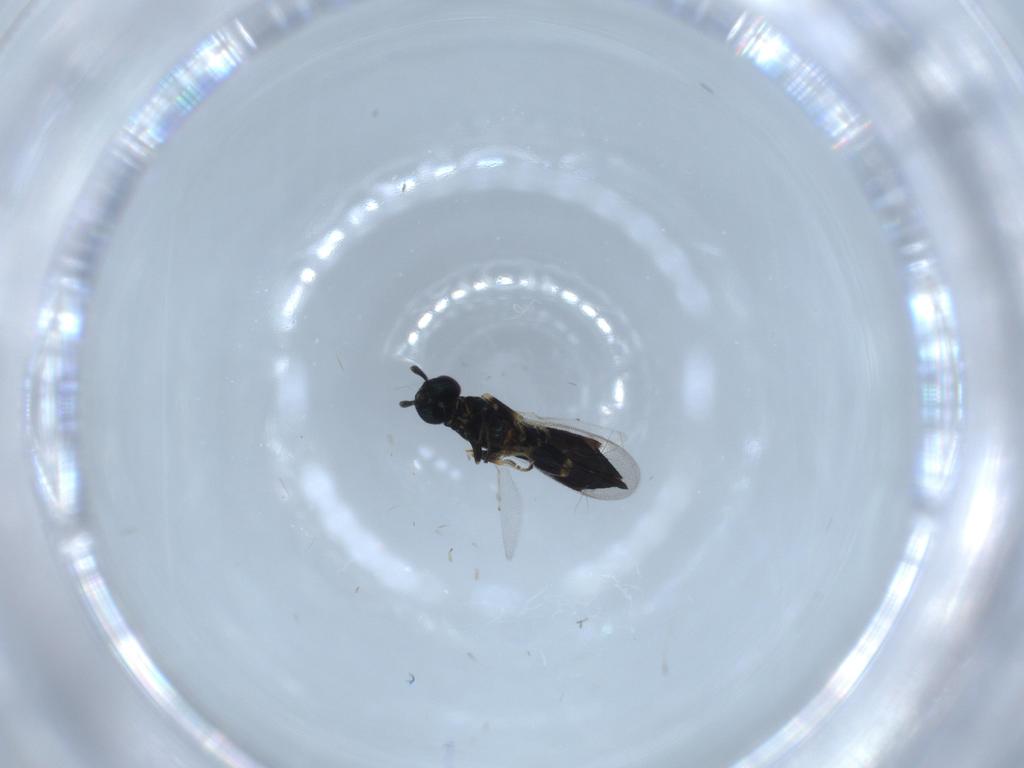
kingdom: Animalia
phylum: Arthropoda
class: Insecta
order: Hymenoptera
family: Eupelmidae
